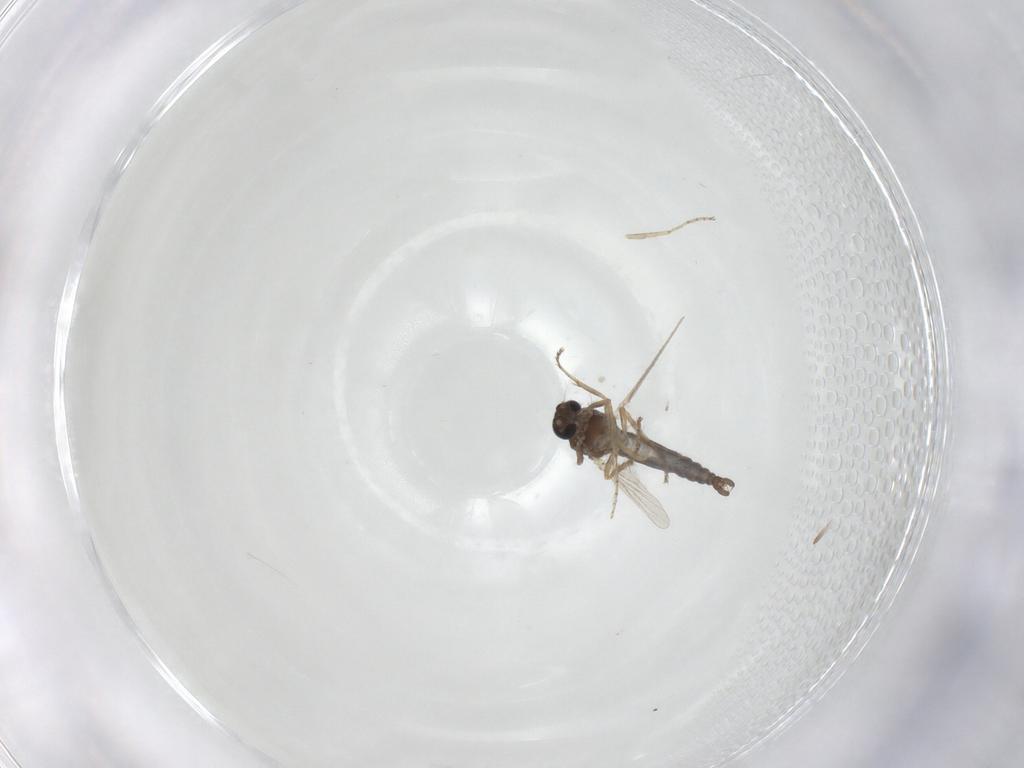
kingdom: Animalia
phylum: Arthropoda
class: Insecta
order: Diptera
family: Ceratopogonidae
